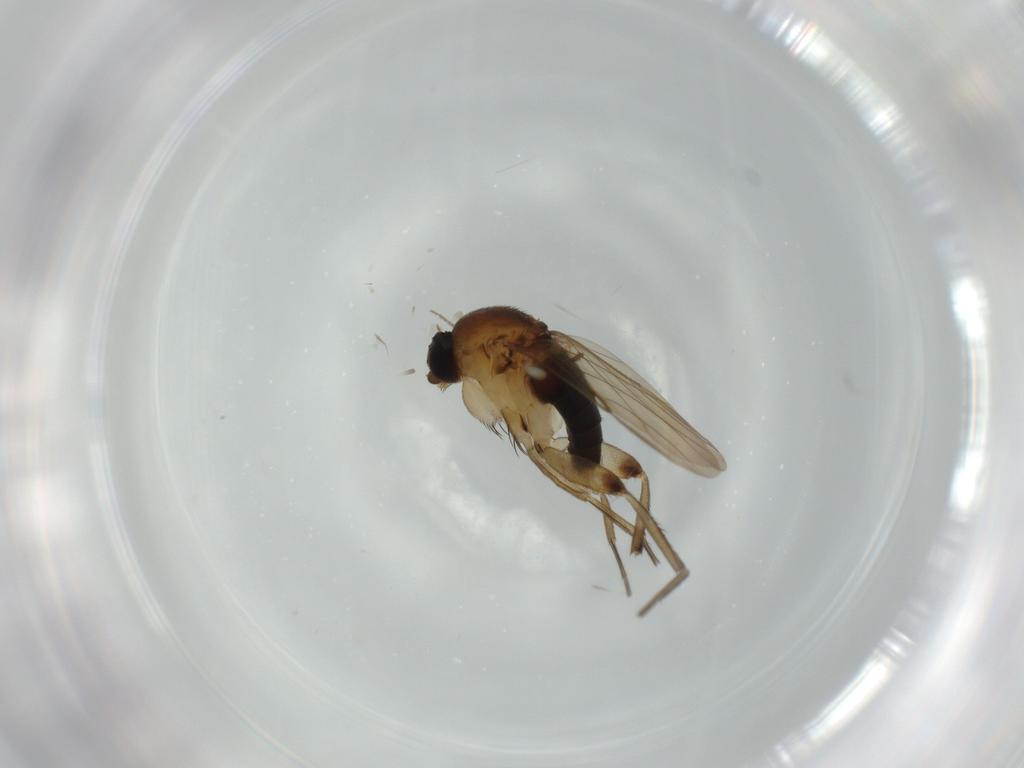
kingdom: Animalia
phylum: Arthropoda
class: Insecta
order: Diptera
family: Phoridae
